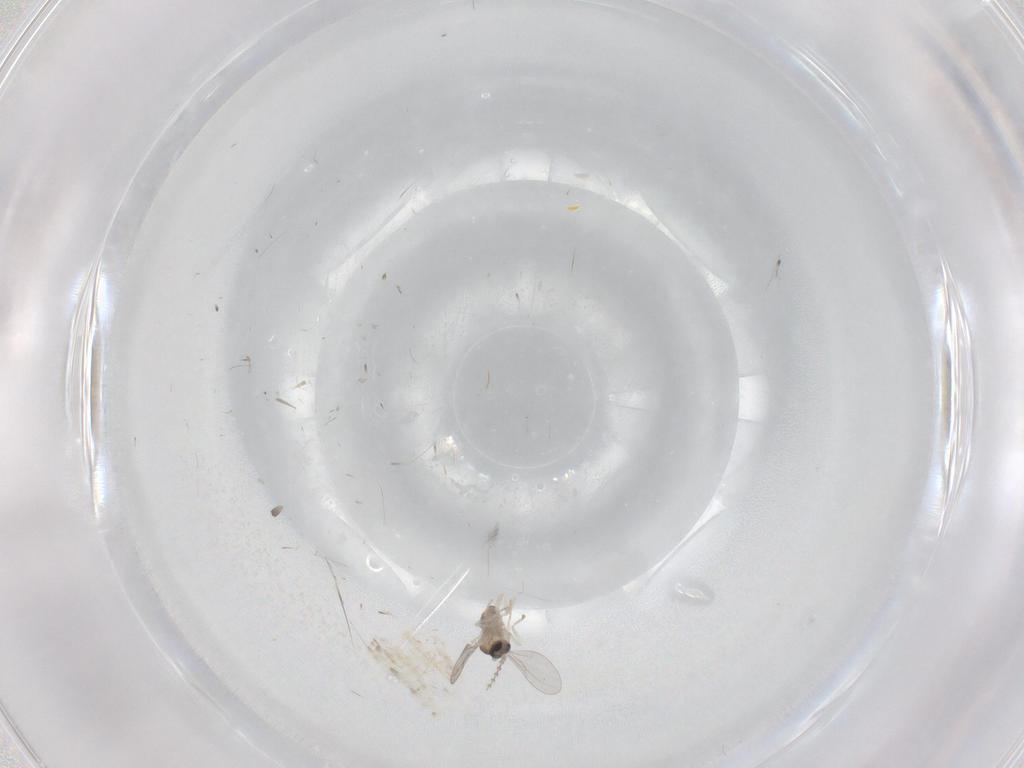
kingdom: Animalia
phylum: Arthropoda
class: Insecta
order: Diptera
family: Cecidomyiidae
